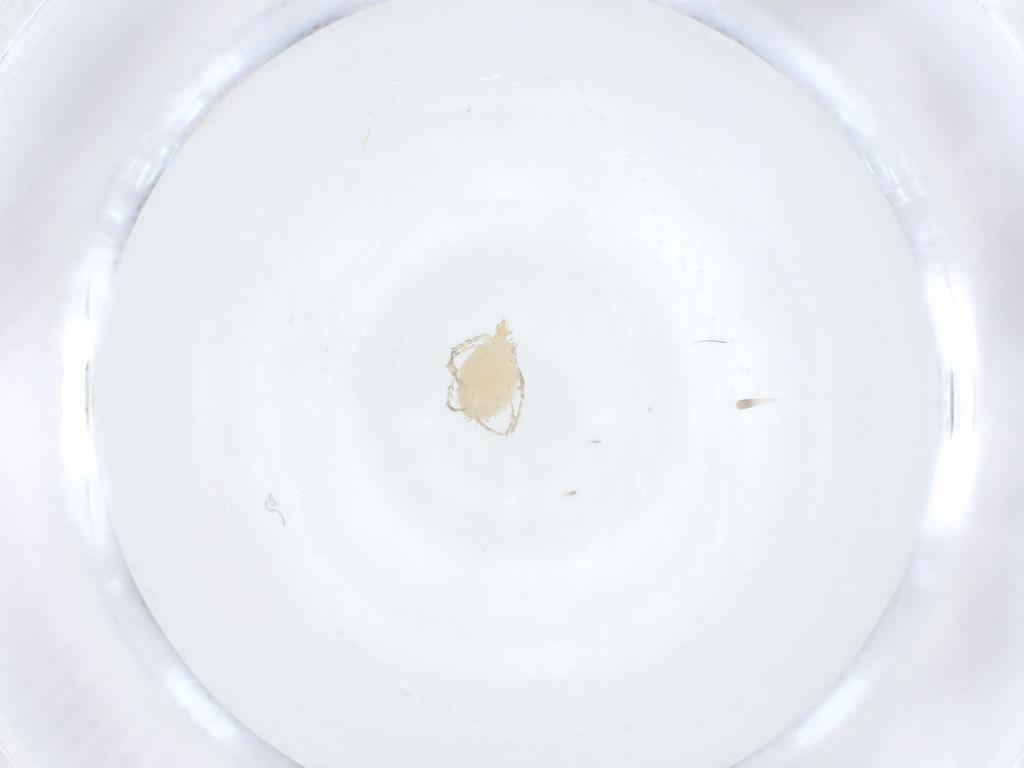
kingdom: Animalia
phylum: Arthropoda
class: Arachnida
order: Trombidiformes
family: Erythraeidae
